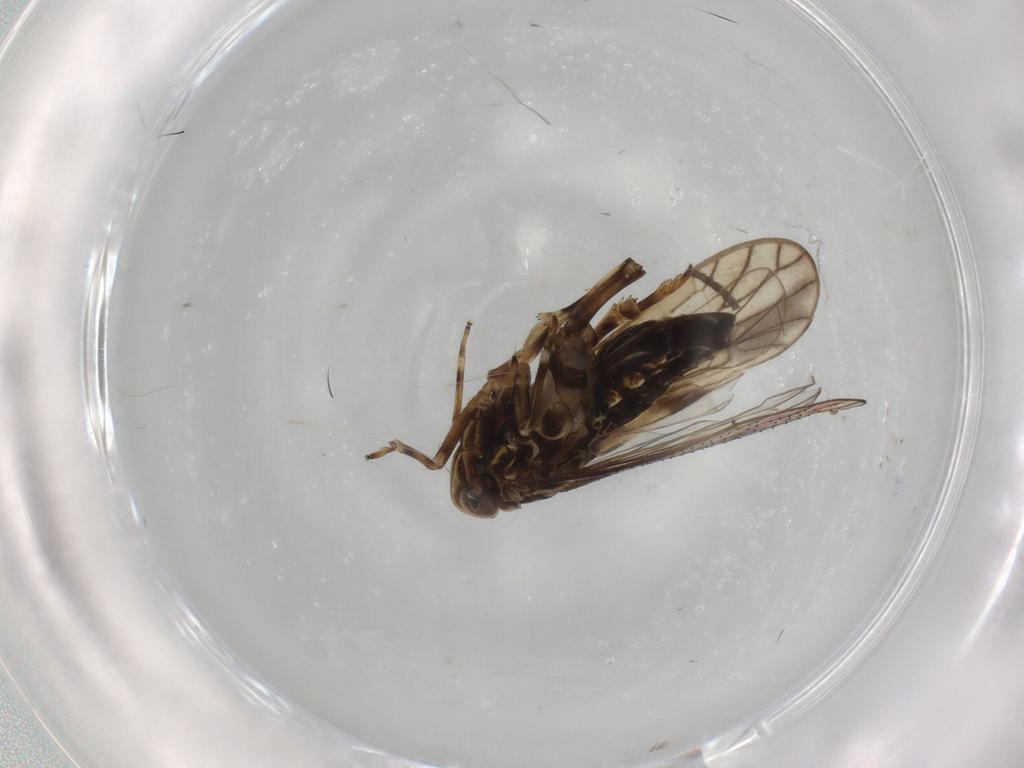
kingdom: Animalia
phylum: Arthropoda
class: Insecta
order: Hemiptera
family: Delphacidae
